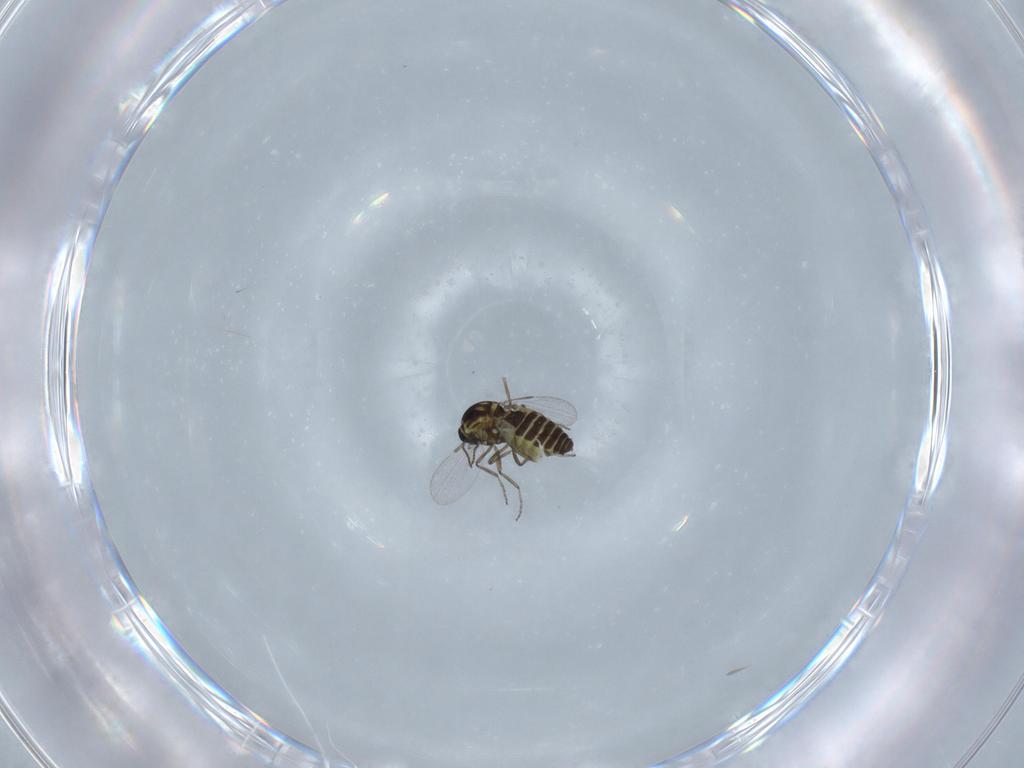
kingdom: Animalia
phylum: Arthropoda
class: Insecta
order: Diptera
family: Ceratopogonidae
